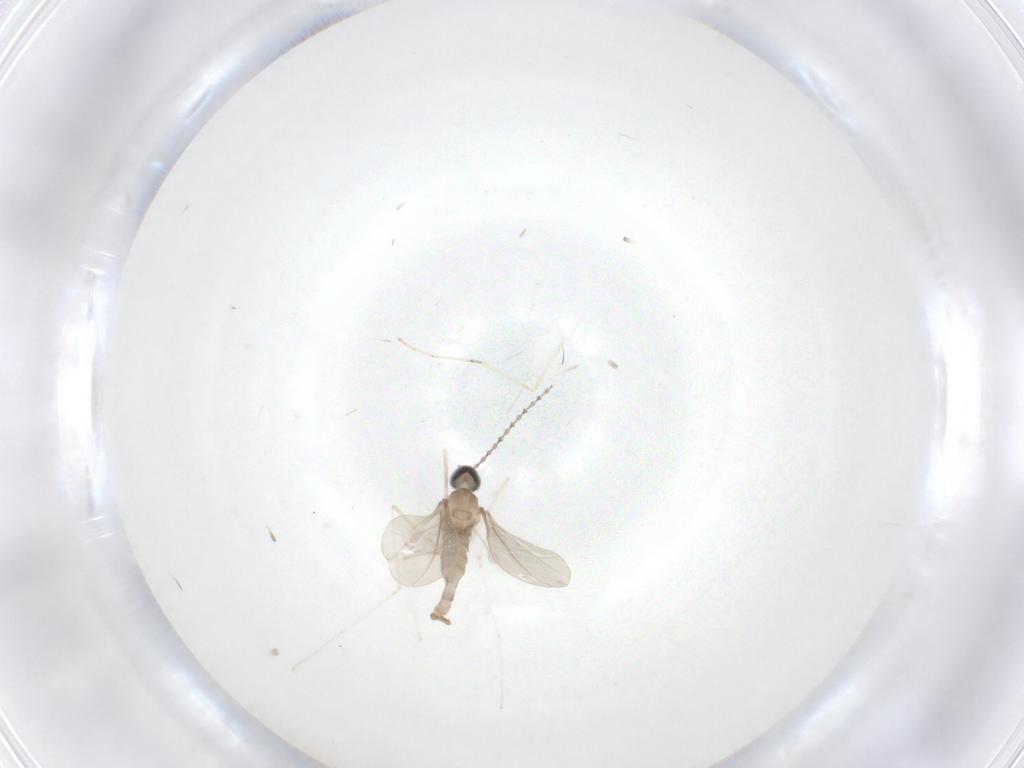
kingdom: Animalia
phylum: Arthropoda
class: Insecta
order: Diptera
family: Cecidomyiidae
